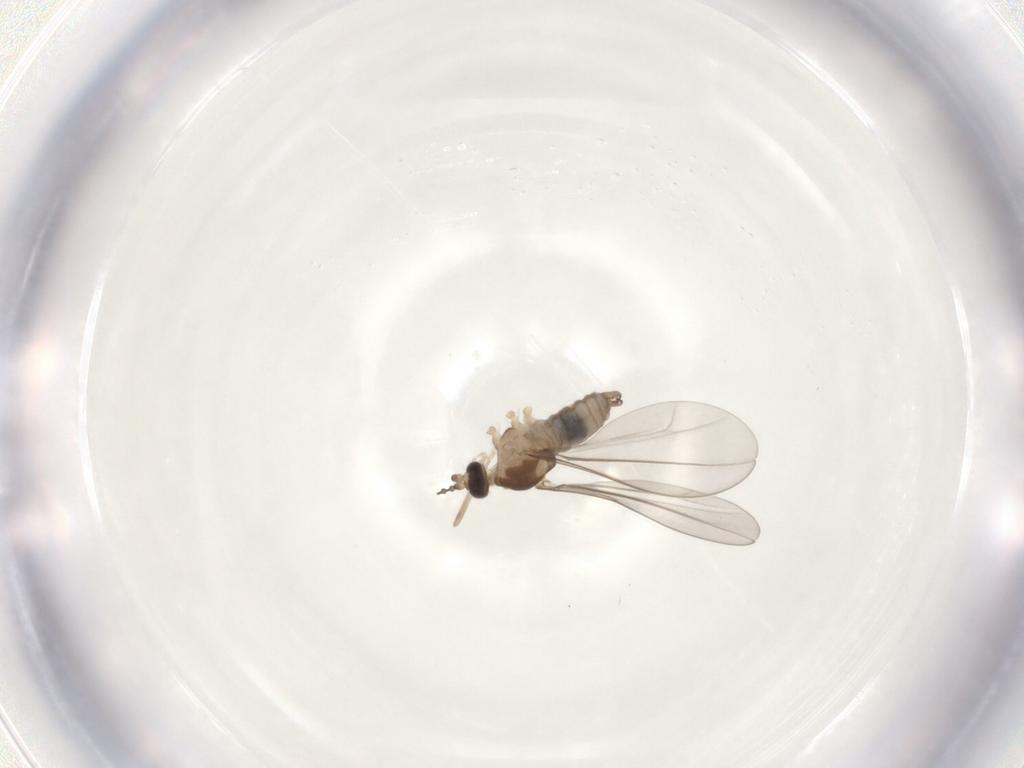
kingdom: Animalia
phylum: Arthropoda
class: Insecta
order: Diptera
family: Cecidomyiidae
